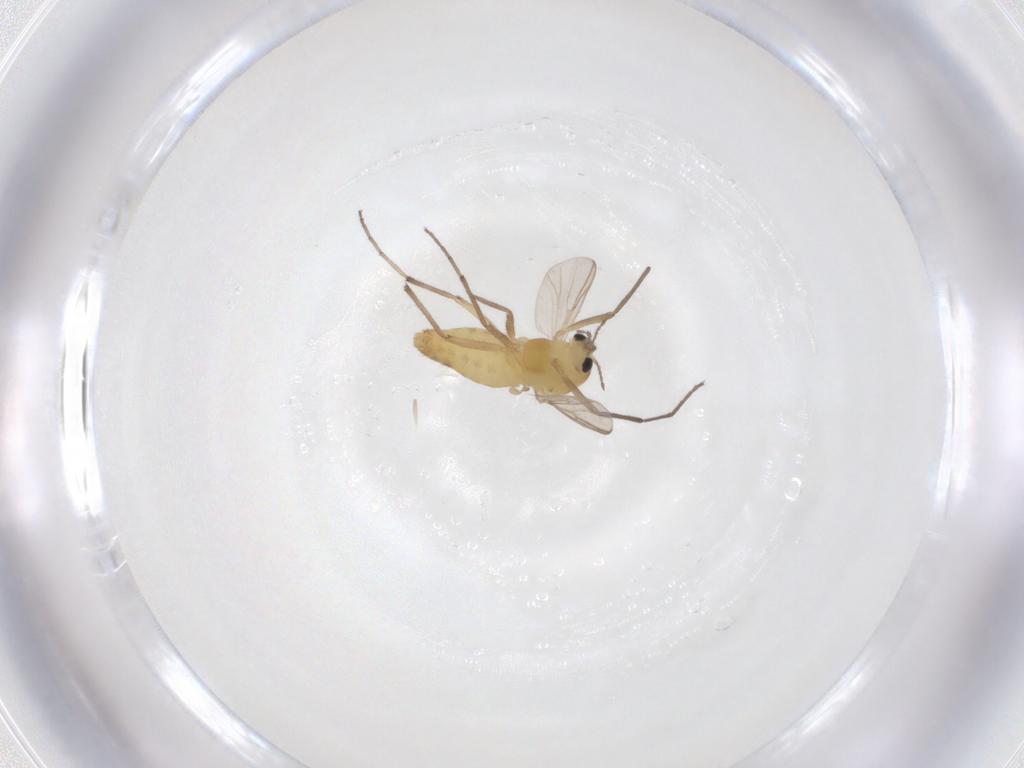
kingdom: Animalia
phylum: Arthropoda
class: Insecta
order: Diptera
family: Chironomidae
